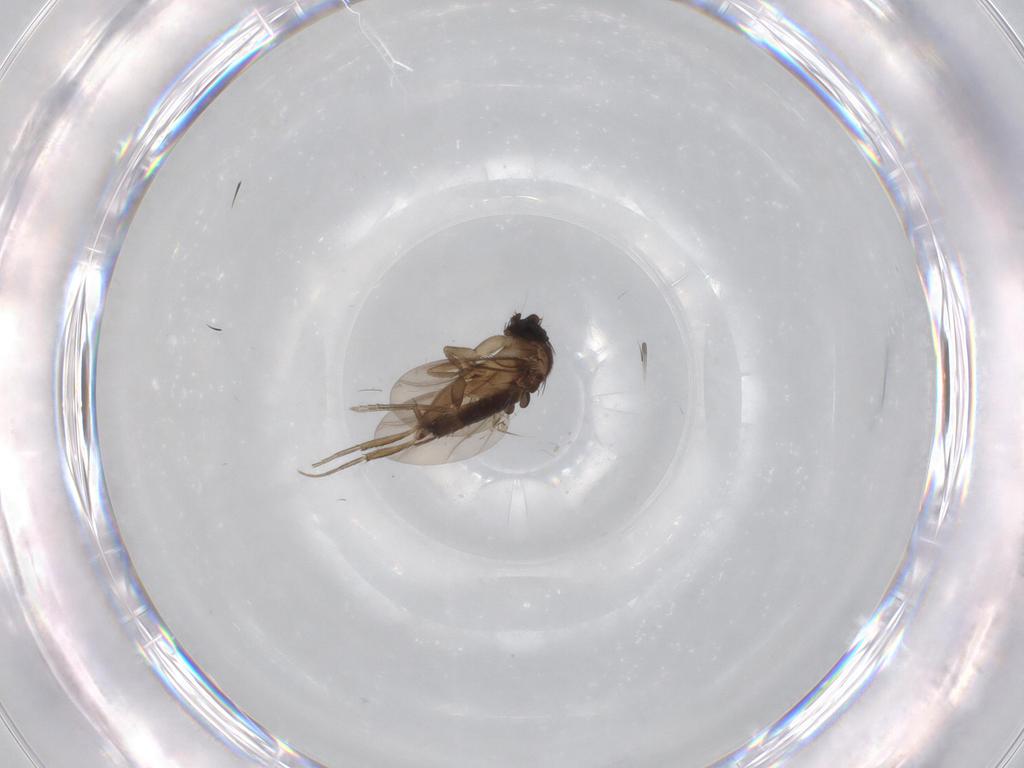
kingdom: Animalia
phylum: Arthropoda
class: Insecta
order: Diptera
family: Phoridae
